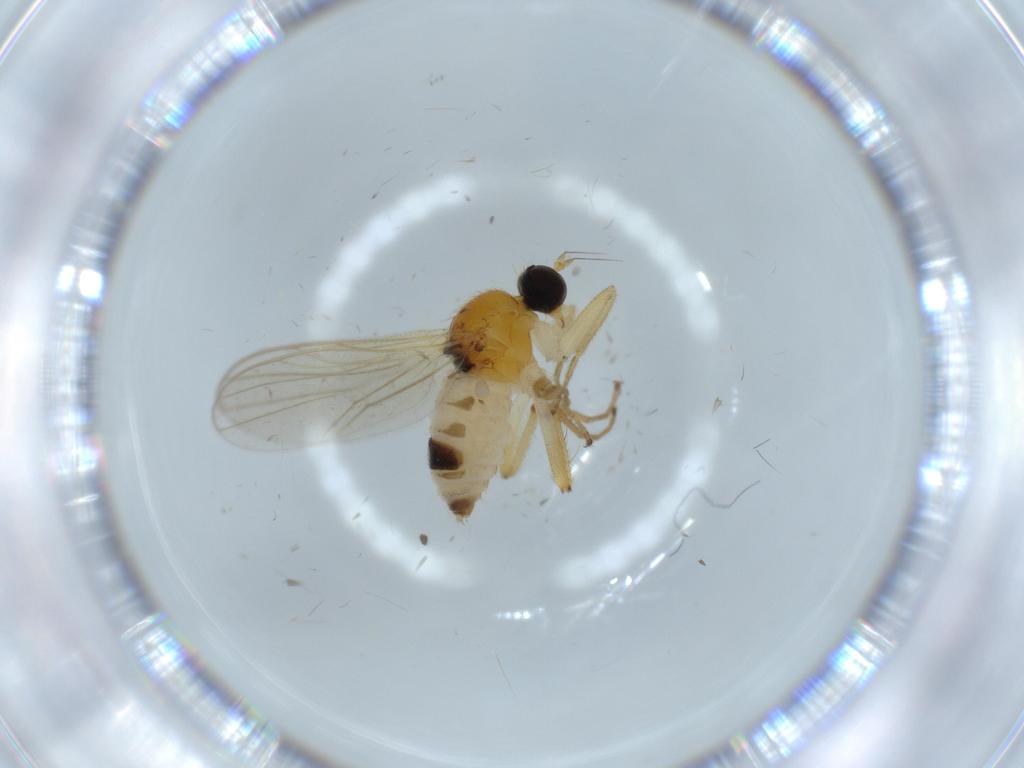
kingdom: Animalia
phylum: Arthropoda
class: Insecta
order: Diptera
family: Hybotidae
